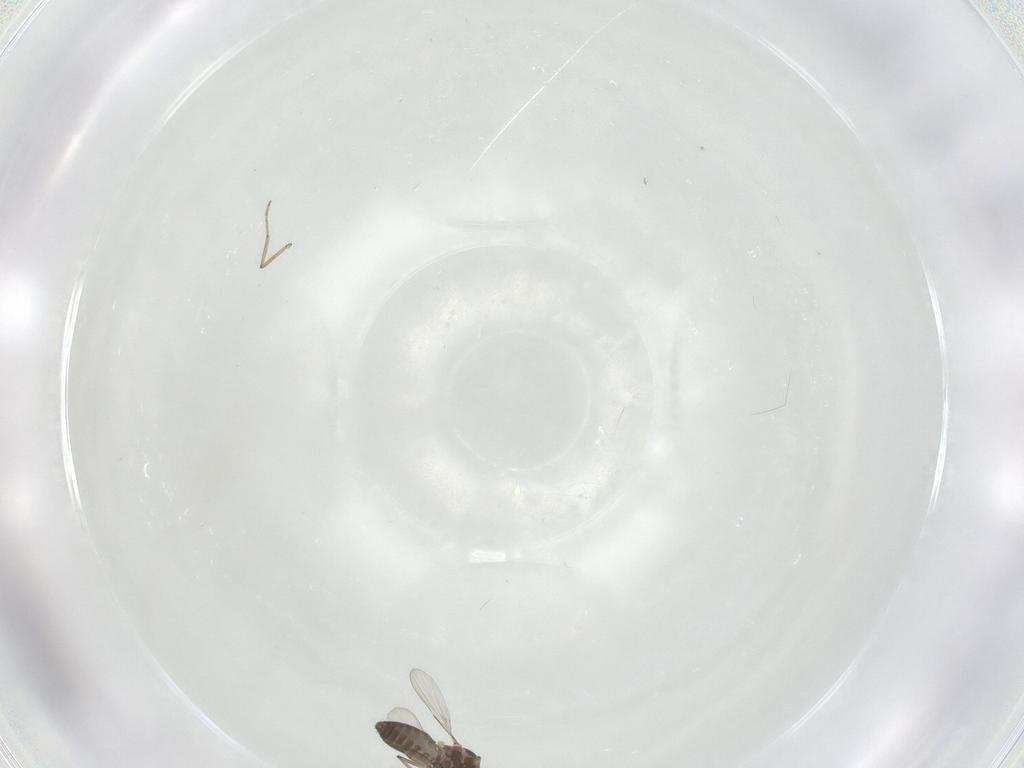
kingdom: Animalia
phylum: Arthropoda
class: Insecta
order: Diptera
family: Ceratopogonidae
